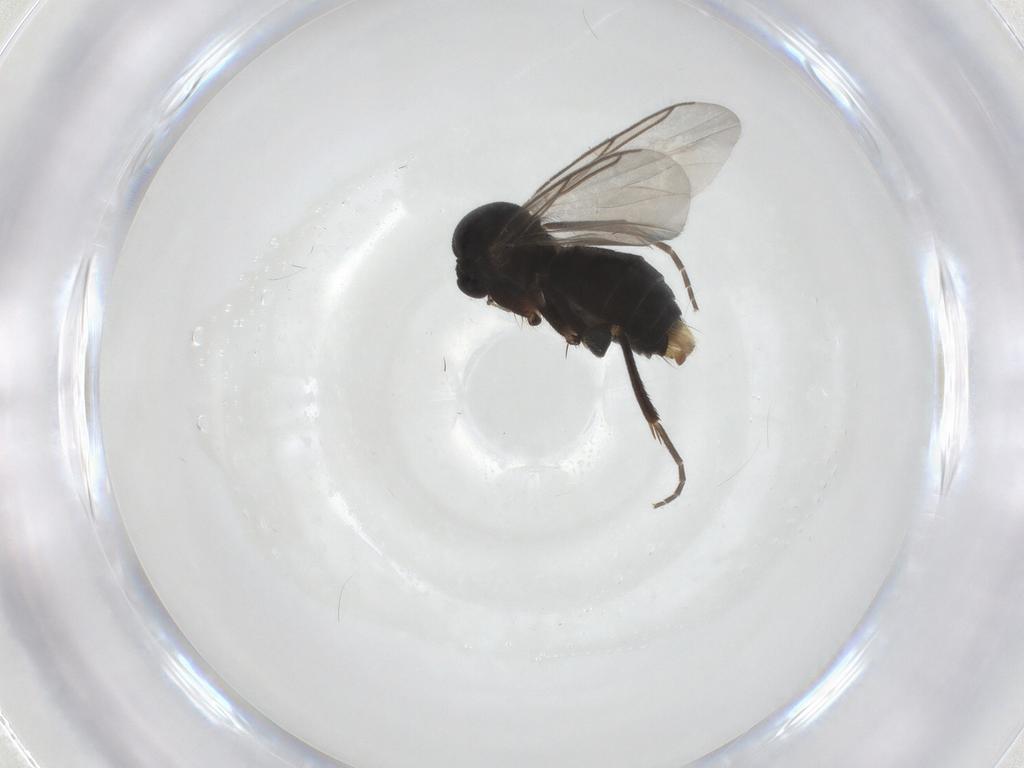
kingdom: Animalia
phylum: Arthropoda
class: Insecta
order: Diptera
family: Mycetophilidae
